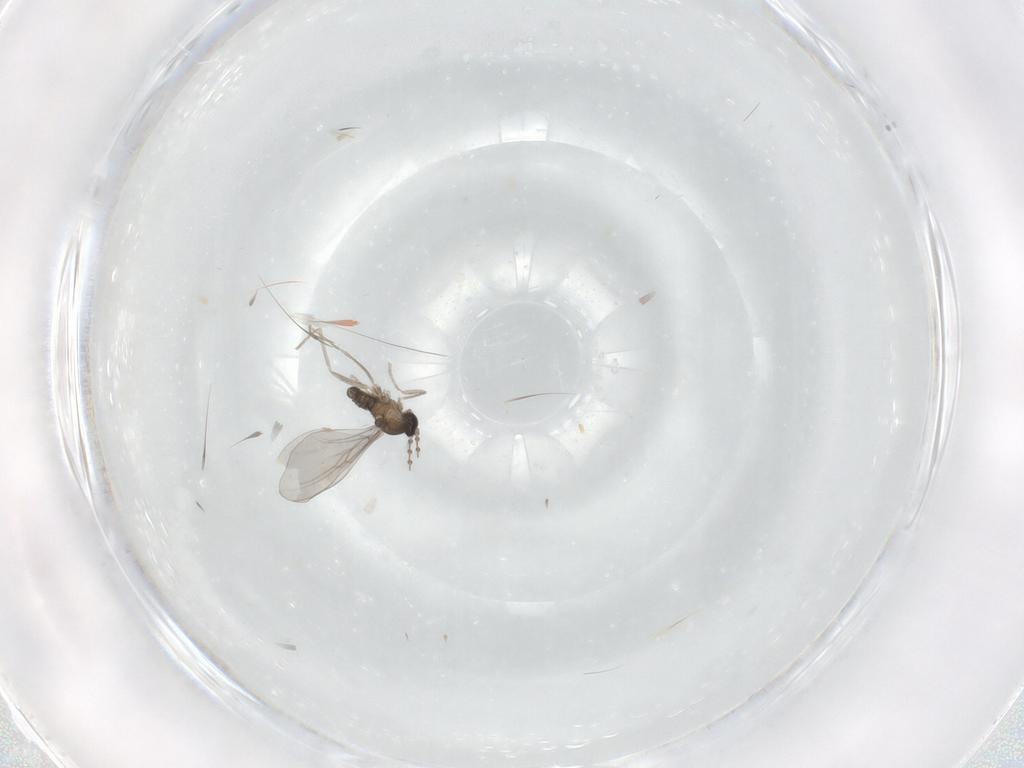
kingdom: Animalia
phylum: Arthropoda
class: Insecta
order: Diptera
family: Cecidomyiidae
